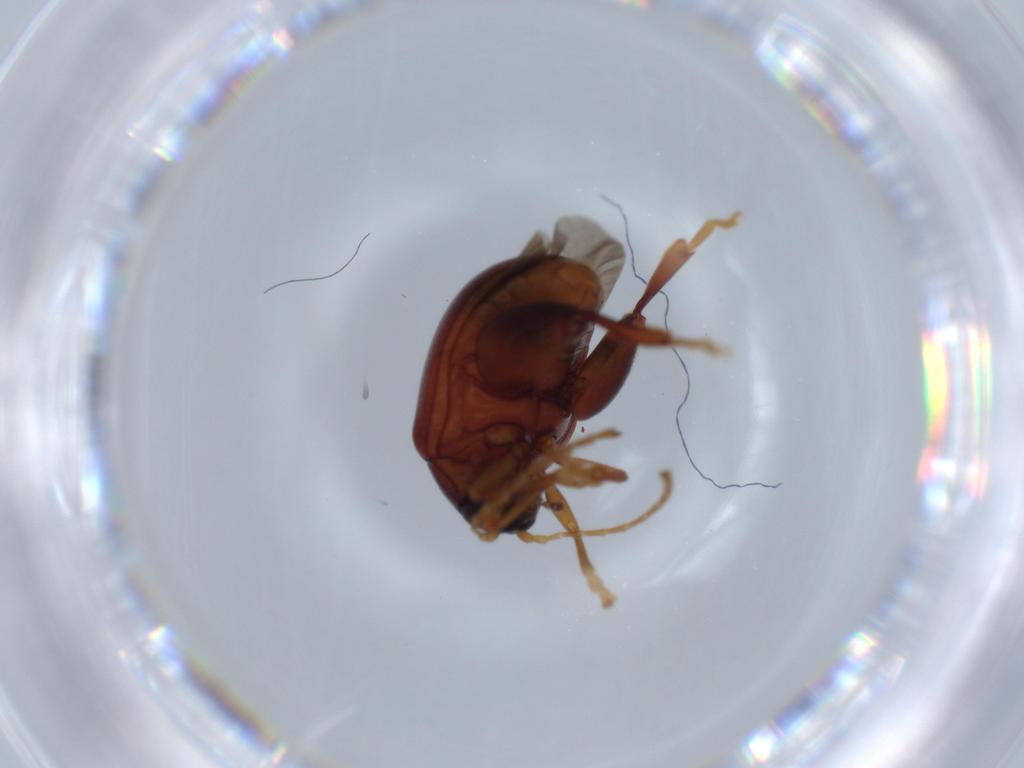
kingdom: Animalia
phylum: Arthropoda
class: Insecta
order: Coleoptera
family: Chrysomelidae
